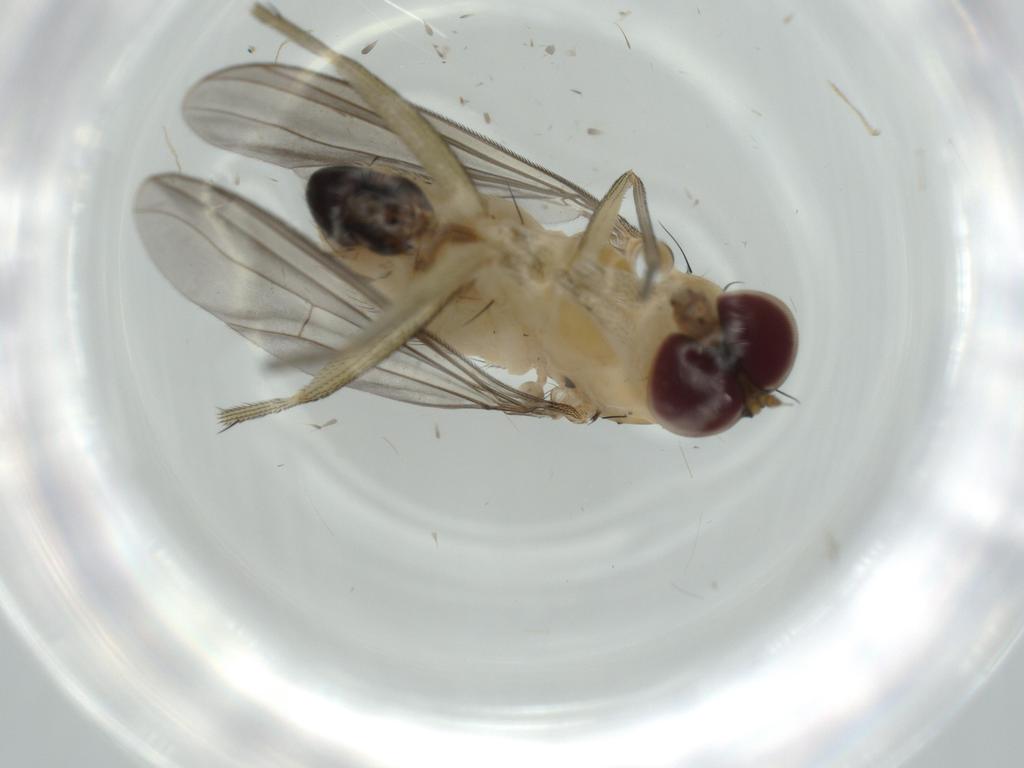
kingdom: Animalia
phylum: Arthropoda
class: Insecta
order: Diptera
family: Dolichopodidae
